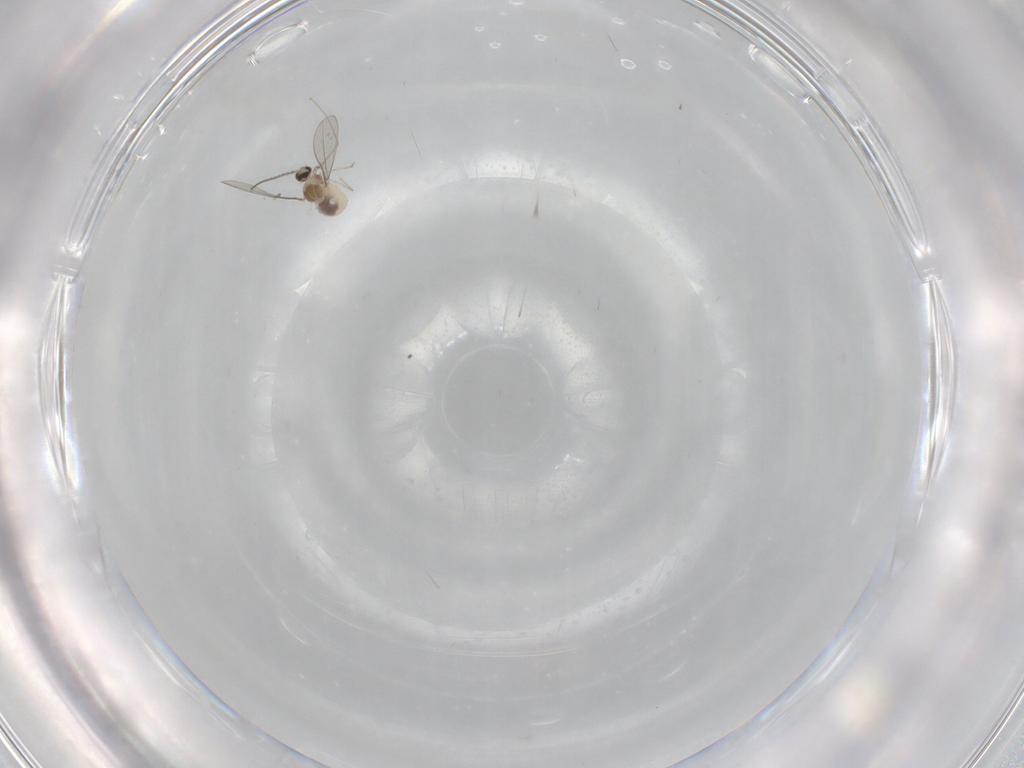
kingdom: Animalia
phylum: Arthropoda
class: Insecta
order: Diptera
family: Cecidomyiidae
